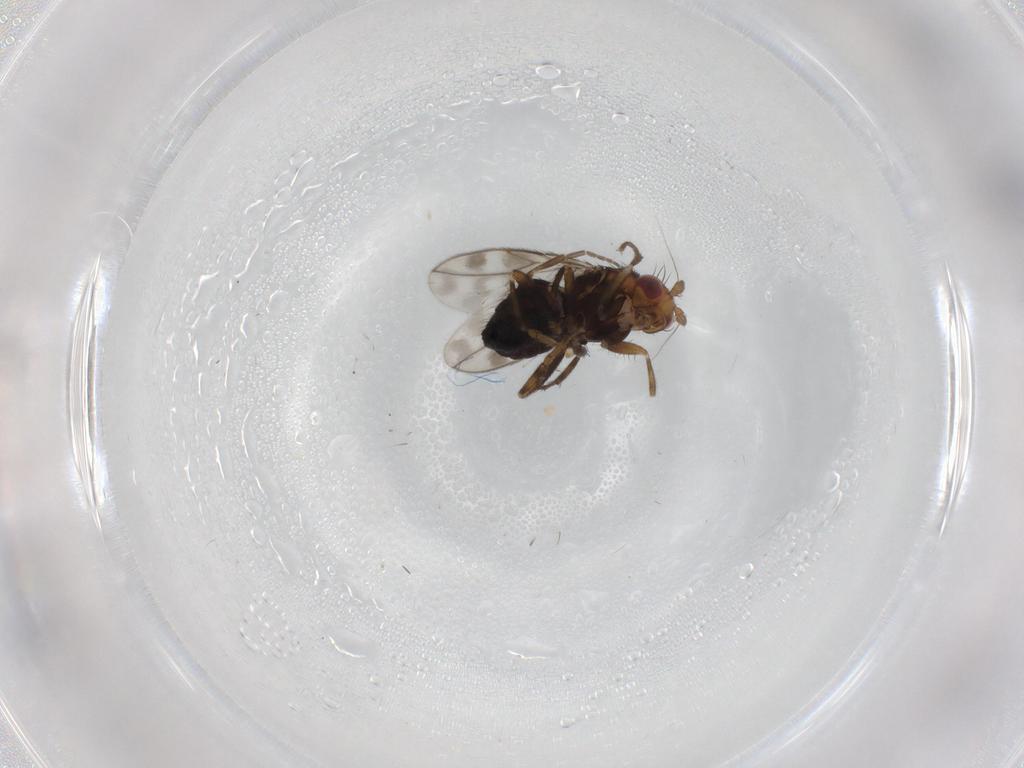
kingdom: Animalia
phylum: Arthropoda
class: Insecta
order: Diptera
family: Sphaeroceridae
